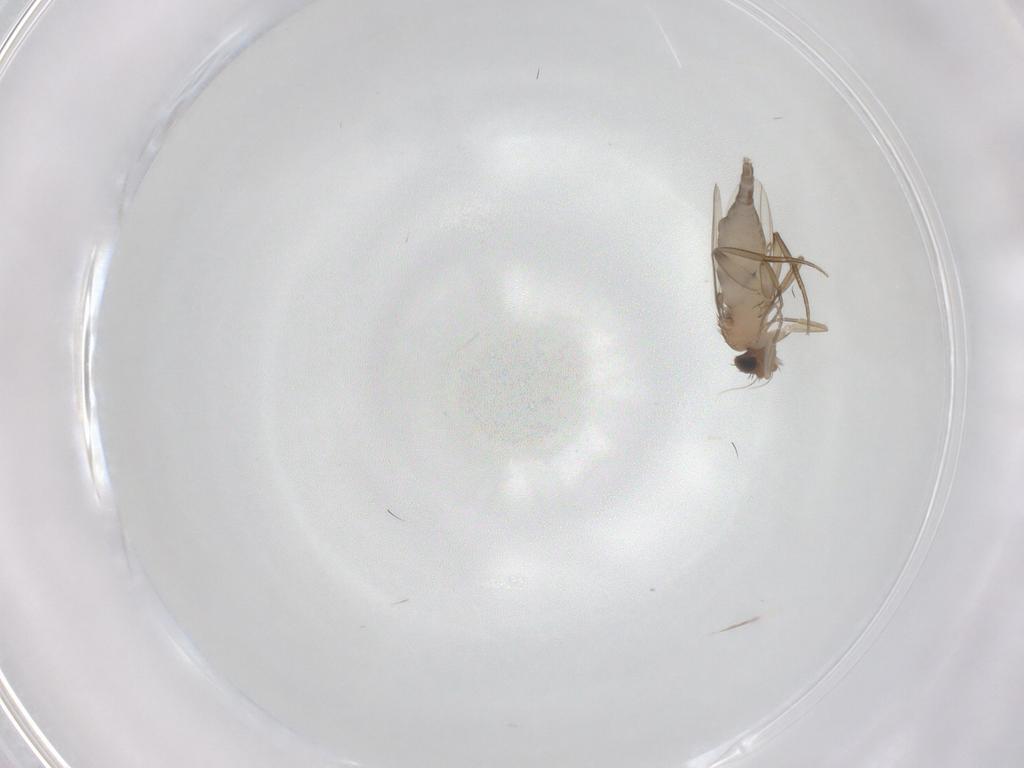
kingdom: Animalia
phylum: Arthropoda
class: Insecta
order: Diptera
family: Phoridae
